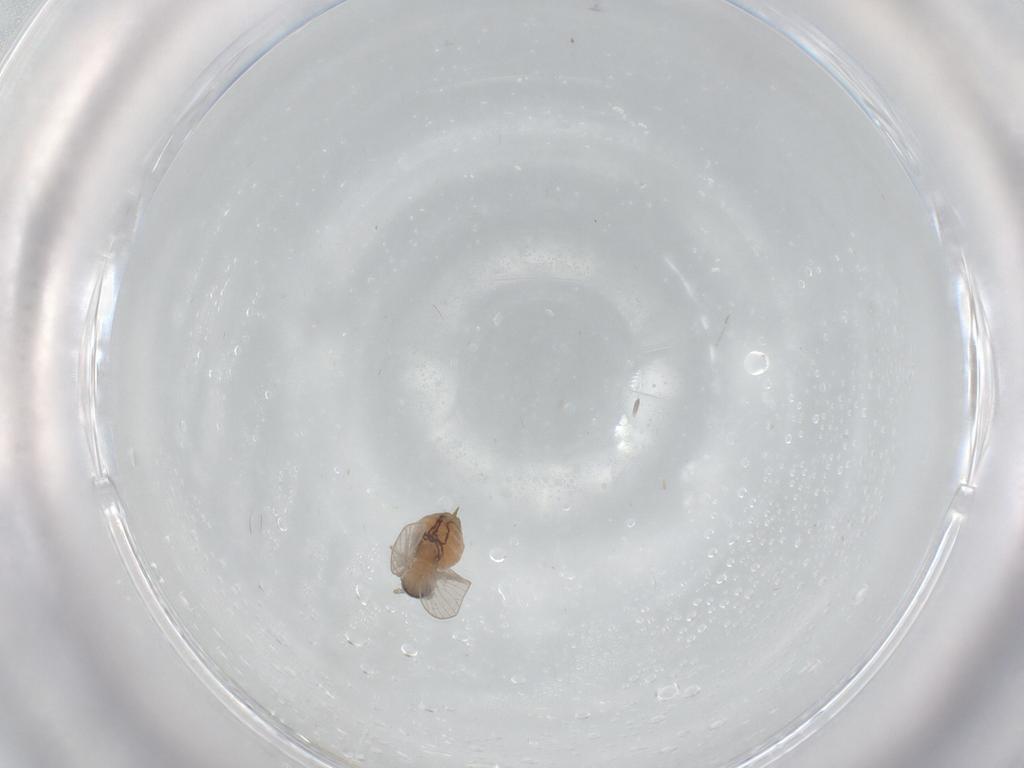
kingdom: Animalia
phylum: Arthropoda
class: Insecta
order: Diptera
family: Psychodidae
